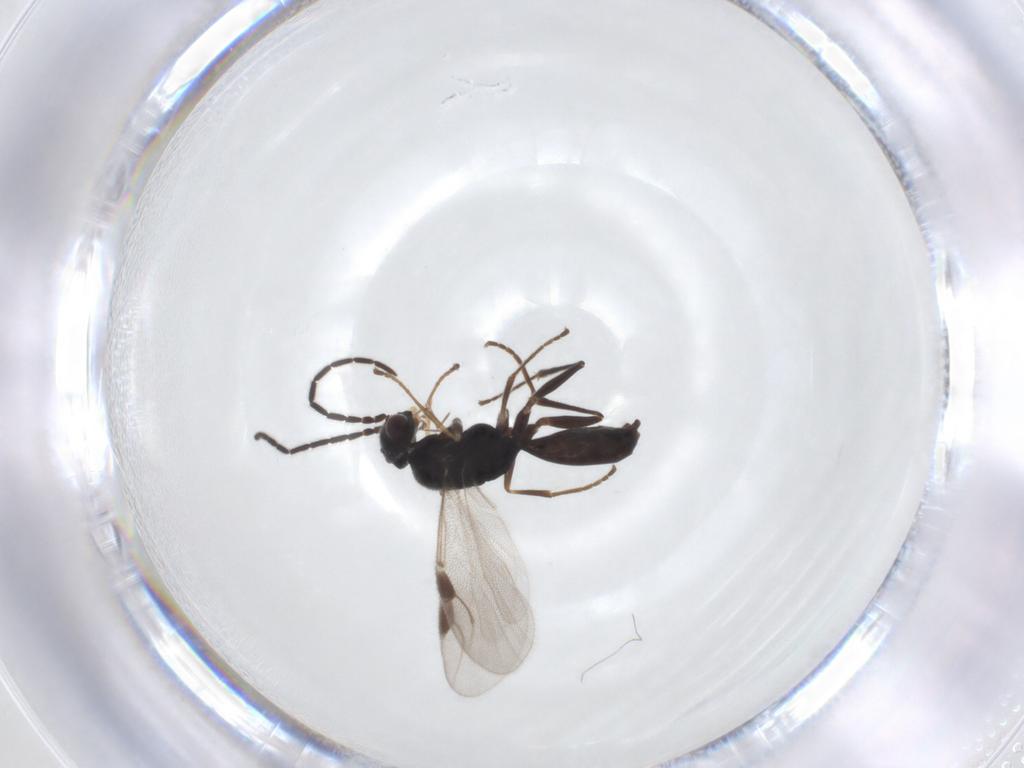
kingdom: Animalia
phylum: Arthropoda
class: Insecta
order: Hymenoptera
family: Dryinidae
